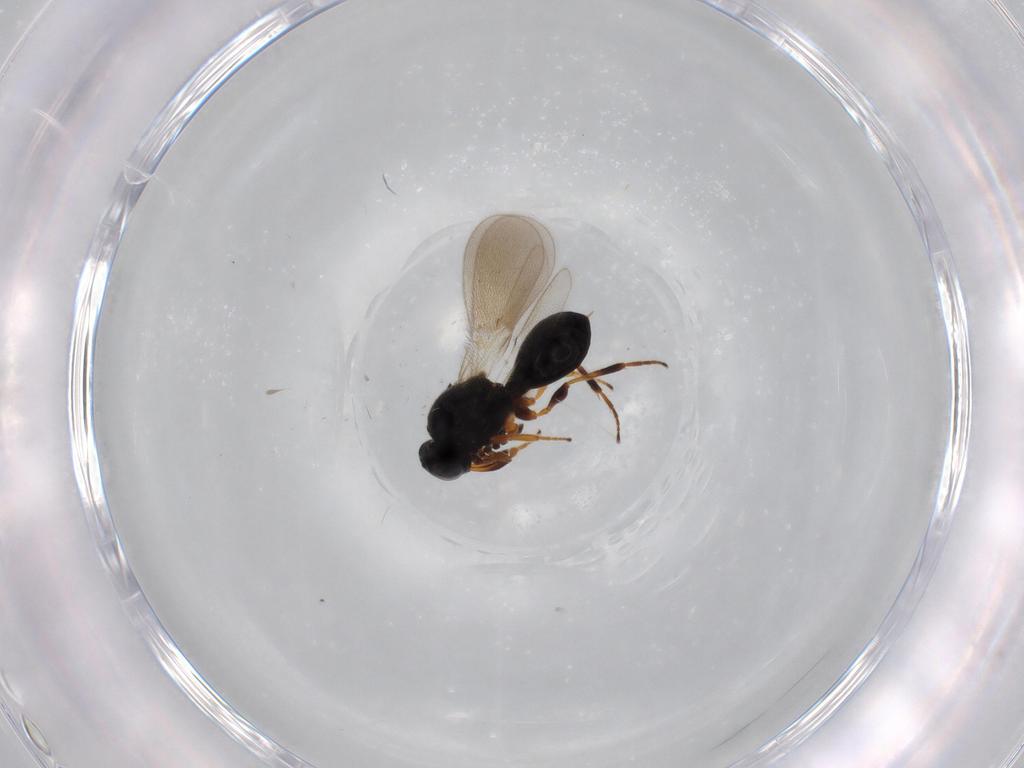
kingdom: Animalia
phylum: Arthropoda
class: Insecta
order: Hymenoptera
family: Platygastridae
